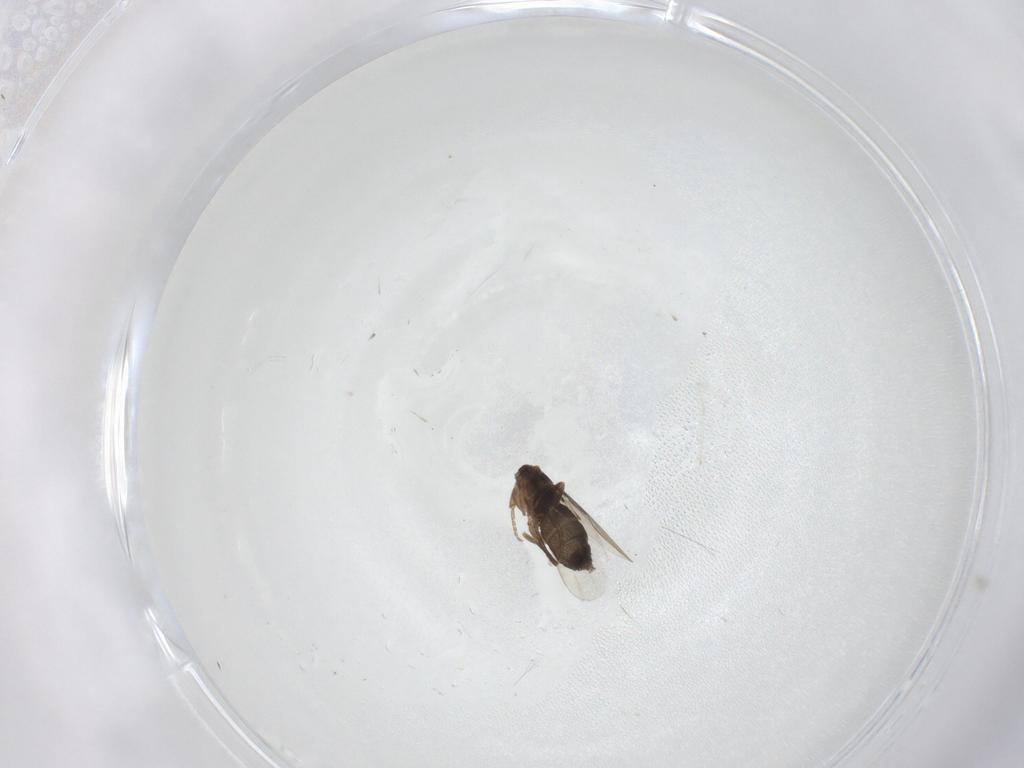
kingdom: Animalia
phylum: Arthropoda
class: Insecta
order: Diptera
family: Phoridae
